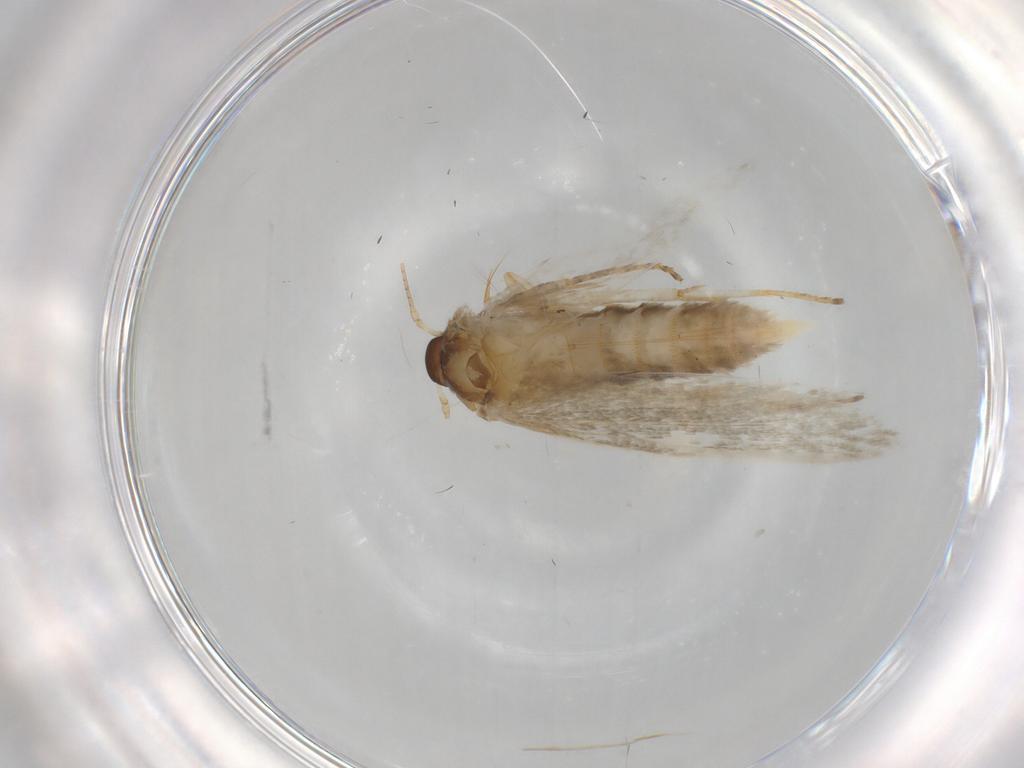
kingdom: Animalia
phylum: Arthropoda
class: Insecta
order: Lepidoptera
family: Blastobasidae
